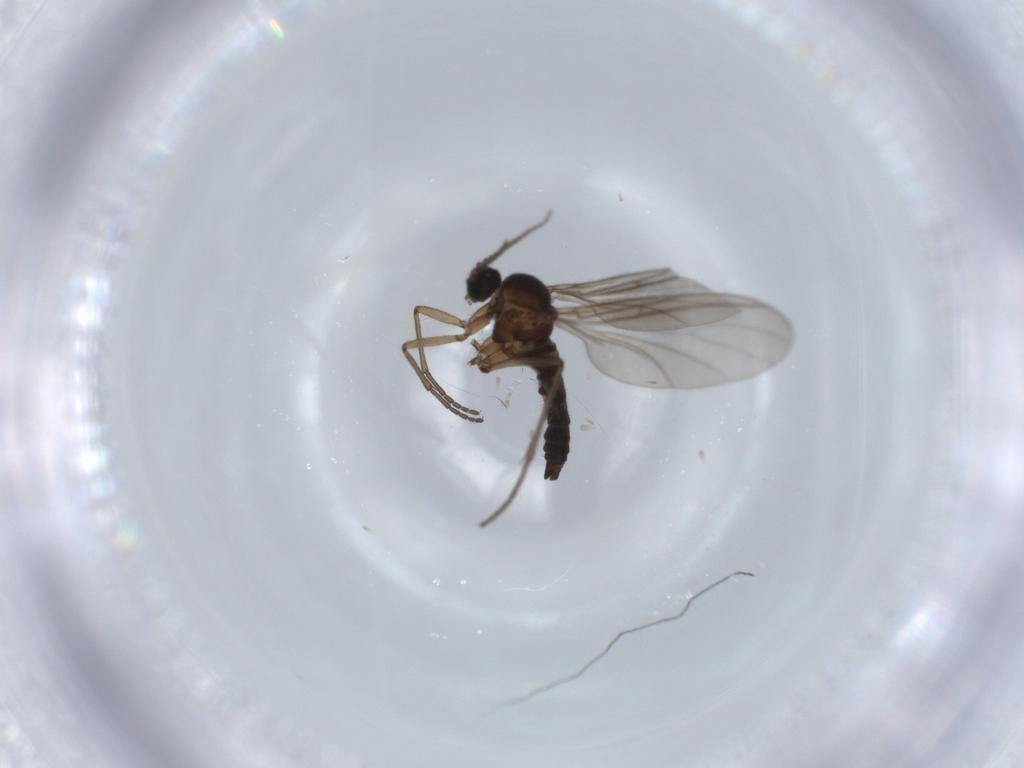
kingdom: Animalia
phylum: Arthropoda
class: Insecta
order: Diptera
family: Sciaridae
